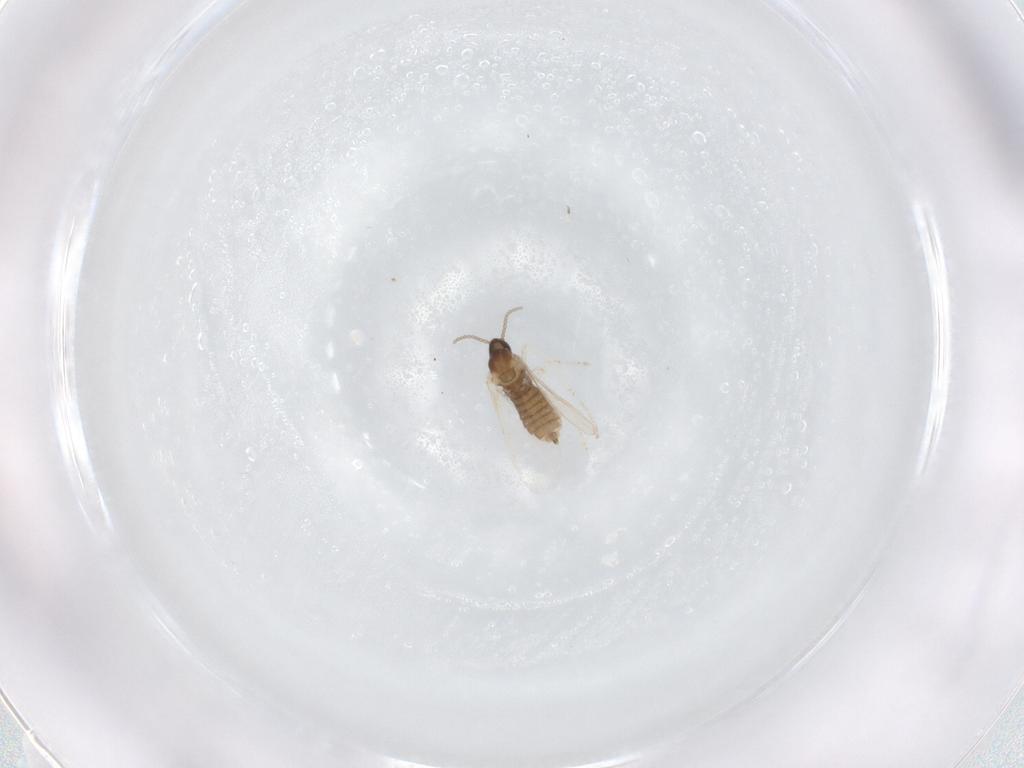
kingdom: Animalia
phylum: Arthropoda
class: Insecta
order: Diptera
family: Cecidomyiidae
